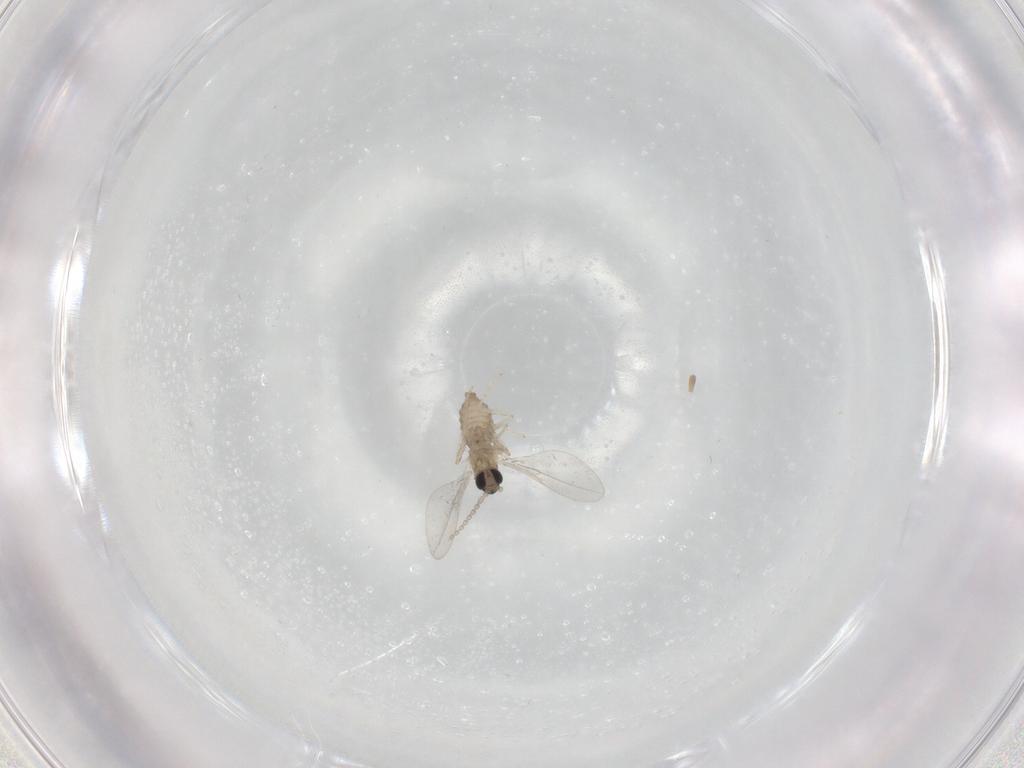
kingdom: Animalia
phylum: Arthropoda
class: Insecta
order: Diptera
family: Cecidomyiidae
